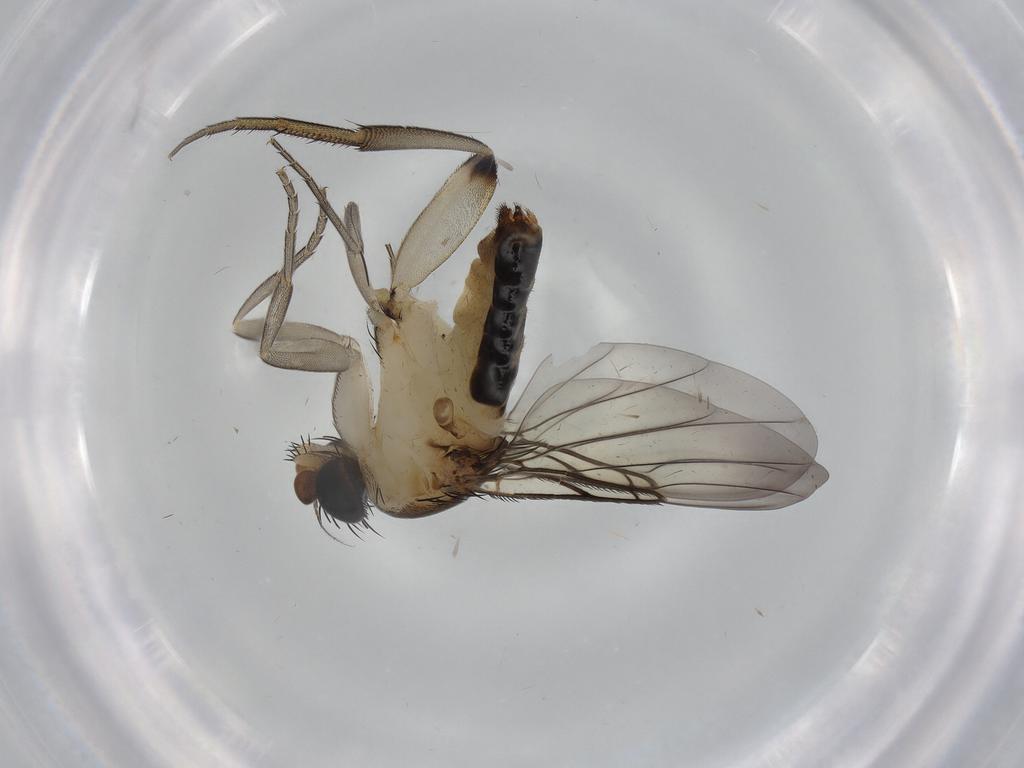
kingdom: Animalia
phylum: Arthropoda
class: Insecta
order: Diptera
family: Phoridae
